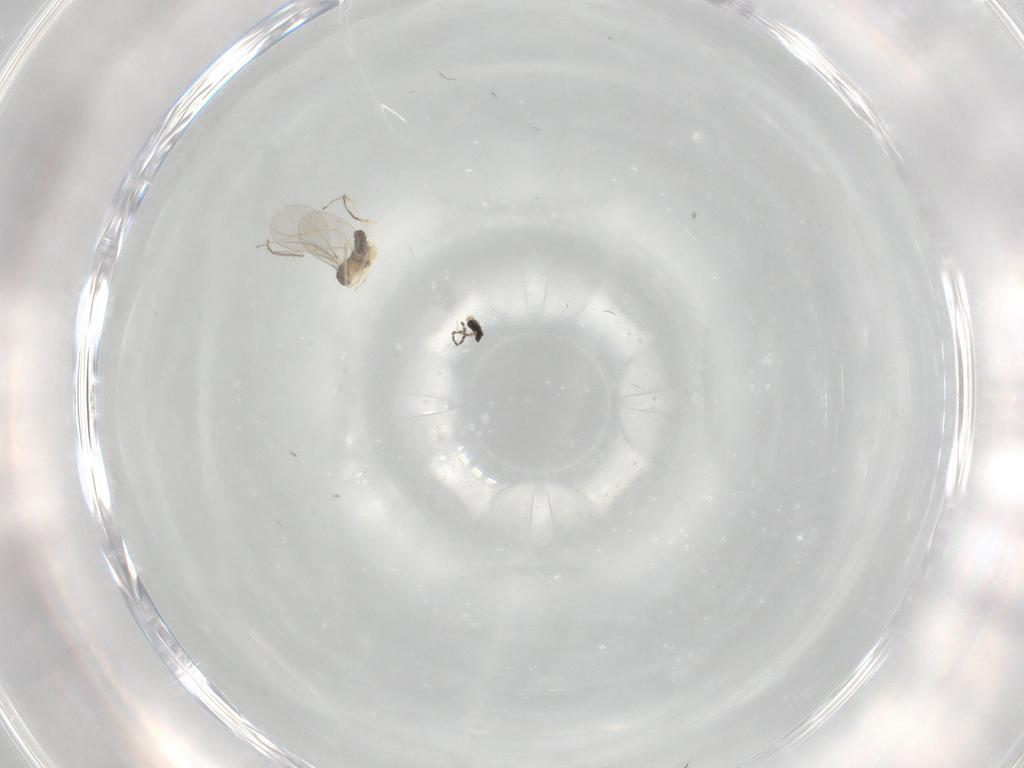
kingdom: Animalia
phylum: Arthropoda
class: Insecta
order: Diptera
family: Cecidomyiidae
